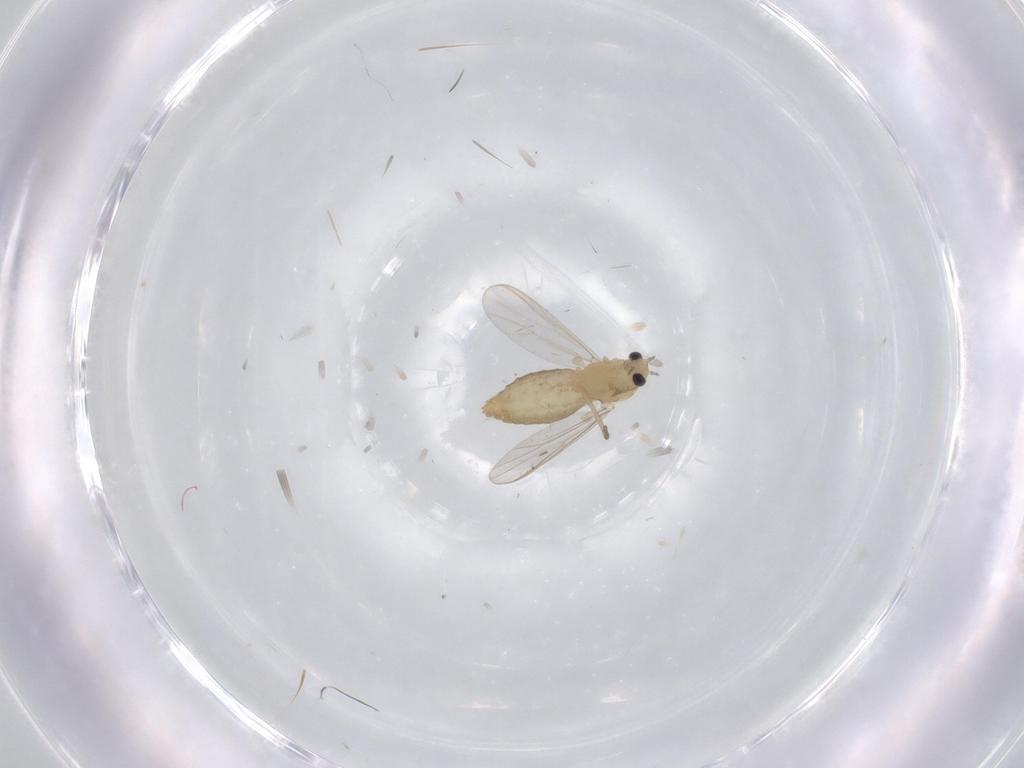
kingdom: Animalia
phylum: Arthropoda
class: Insecta
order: Diptera
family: Chironomidae
